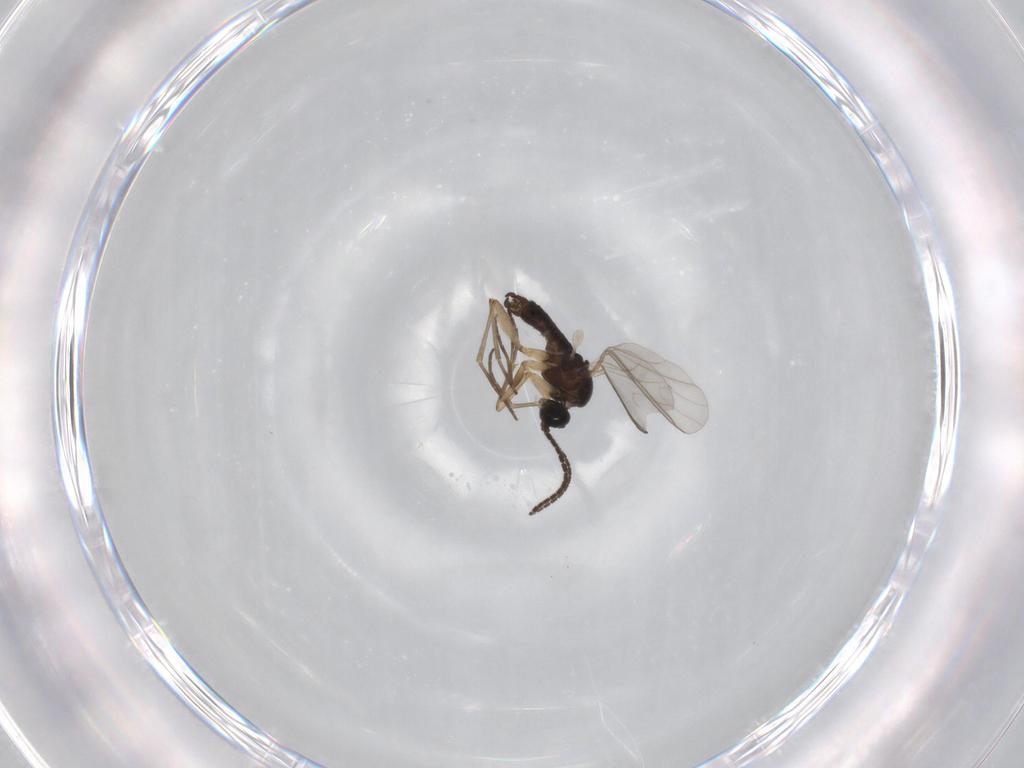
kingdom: Animalia
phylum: Arthropoda
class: Insecta
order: Diptera
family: Sciaridae
